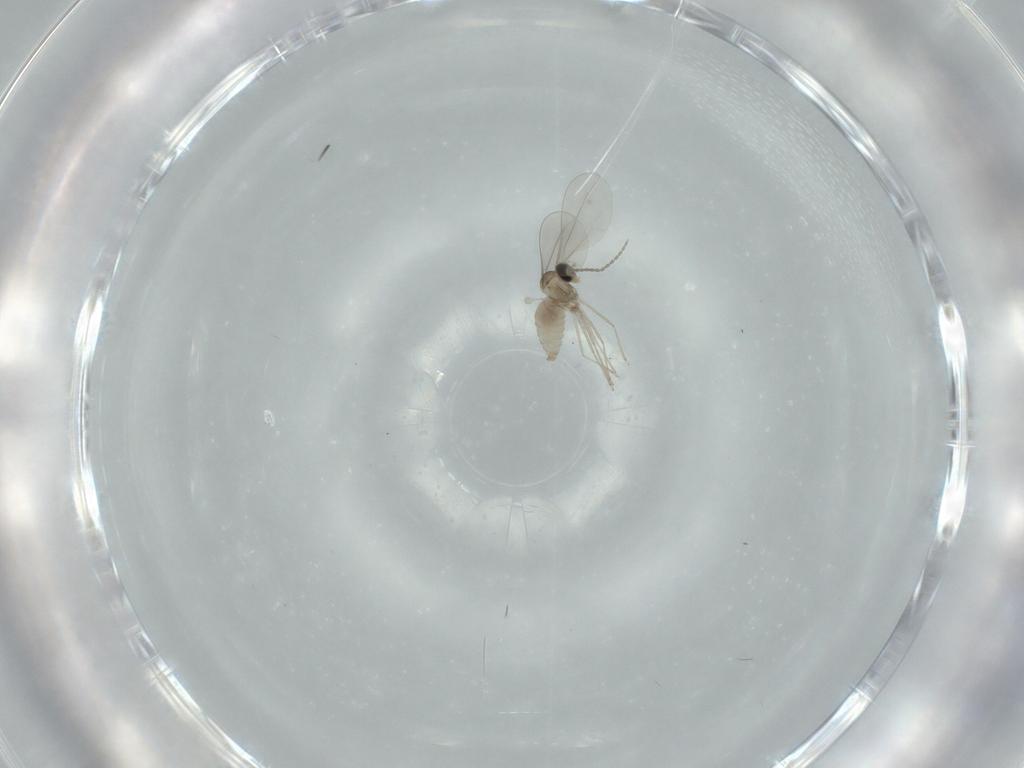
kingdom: Animalia
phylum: Arthropoda
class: Insecta
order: Diptera
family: Cecidomyiidae
